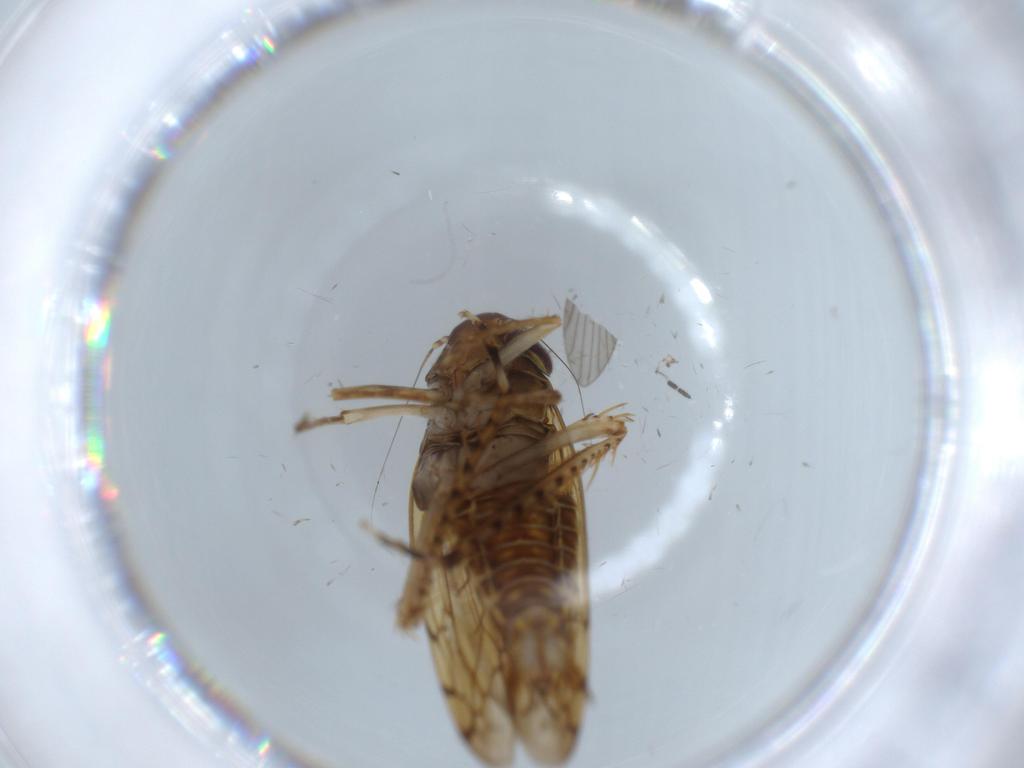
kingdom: Animalia
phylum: Arthropoda
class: Insecta
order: Hemiptera
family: Cicadellidae
